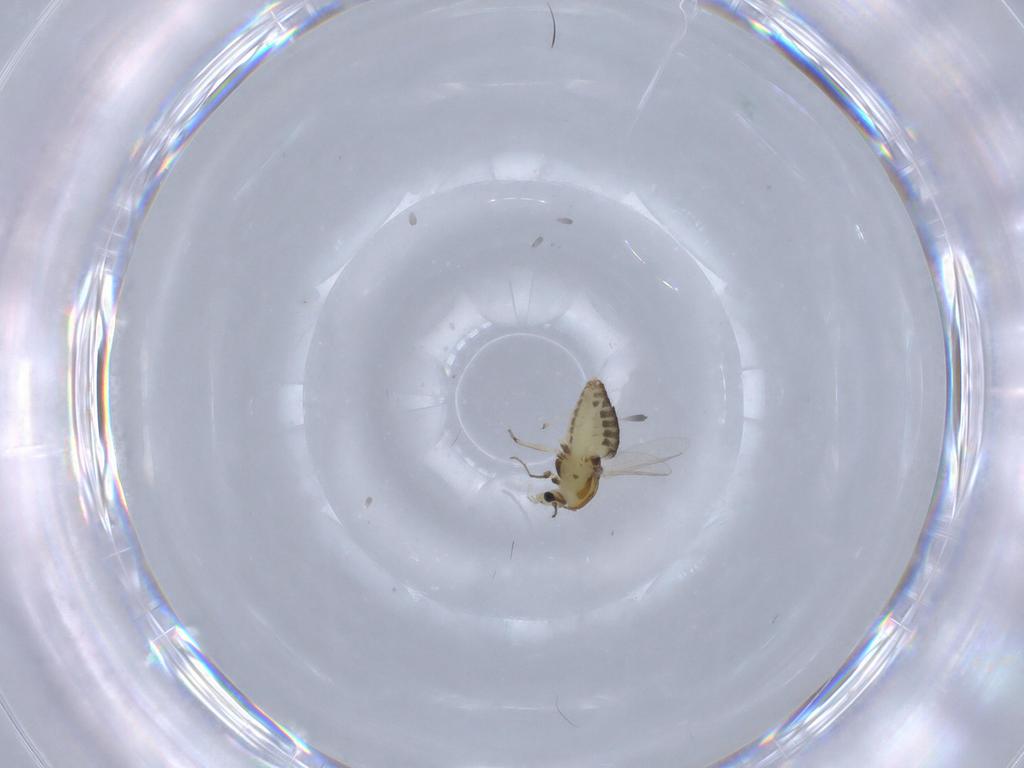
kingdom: Animalia
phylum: Arthropoda
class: Insecta
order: Diptera
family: Chironomidae
